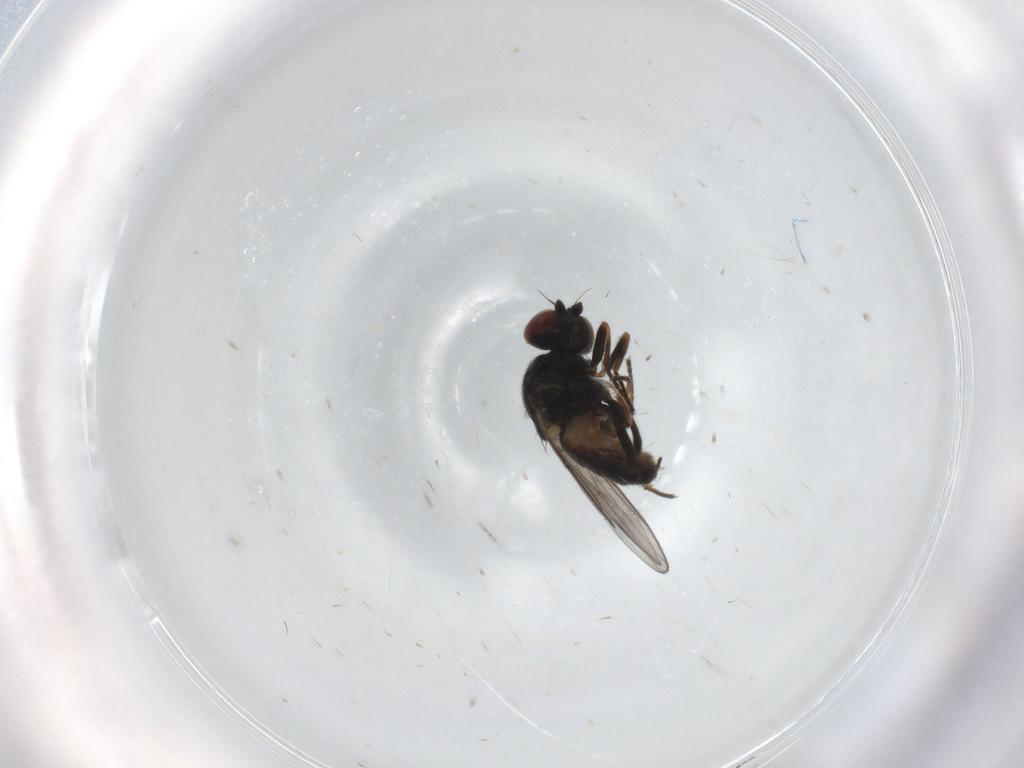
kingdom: Animalia
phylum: Arthropoda
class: Insecta
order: Diptera
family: Chloropidae
